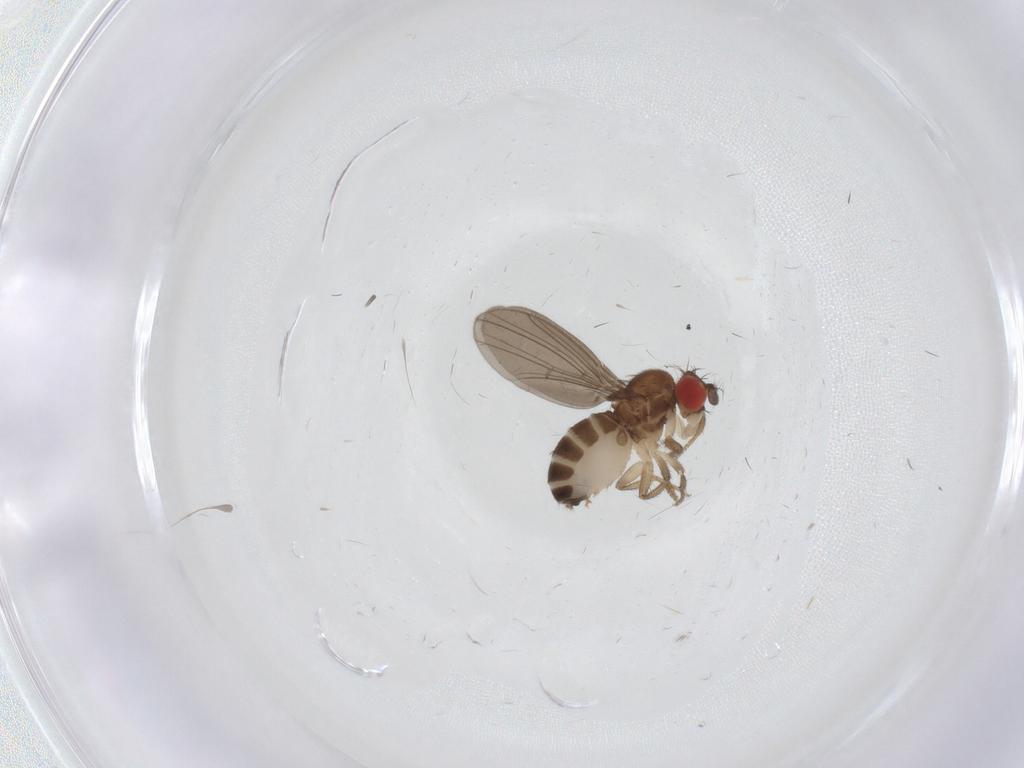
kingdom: Animalia
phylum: Arthropoda
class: Insecta
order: Diptera
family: Drosophilidae
